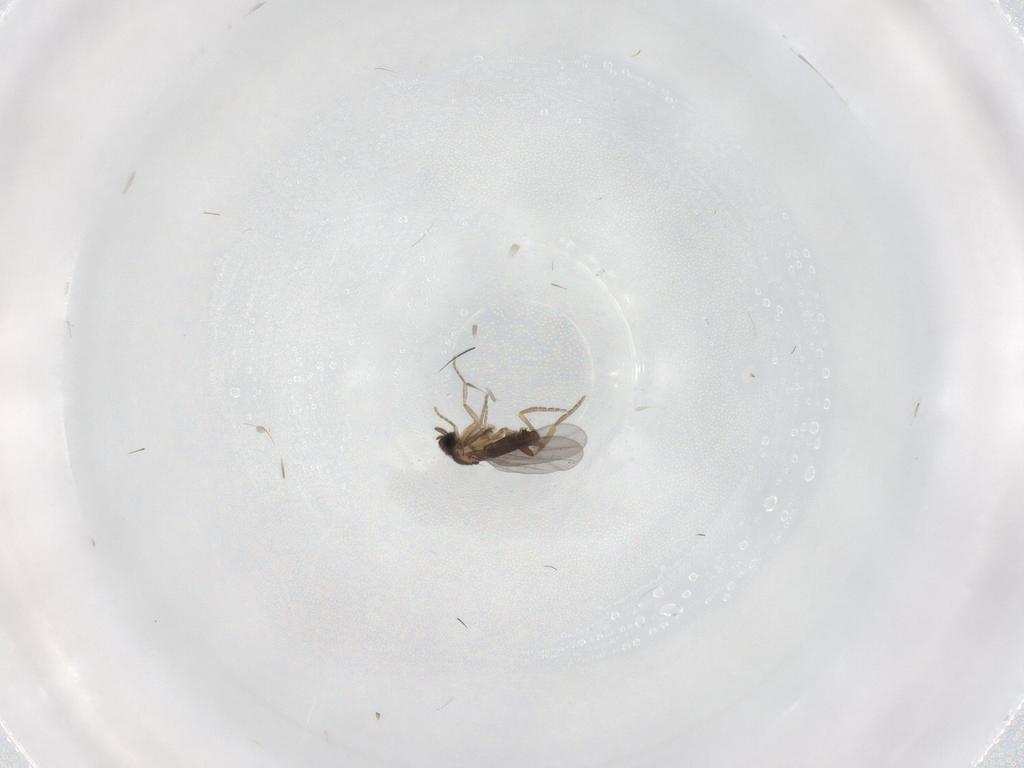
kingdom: Animalia
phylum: Arthropoda
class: Insecta
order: Diptera
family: Cecidomyiidae
